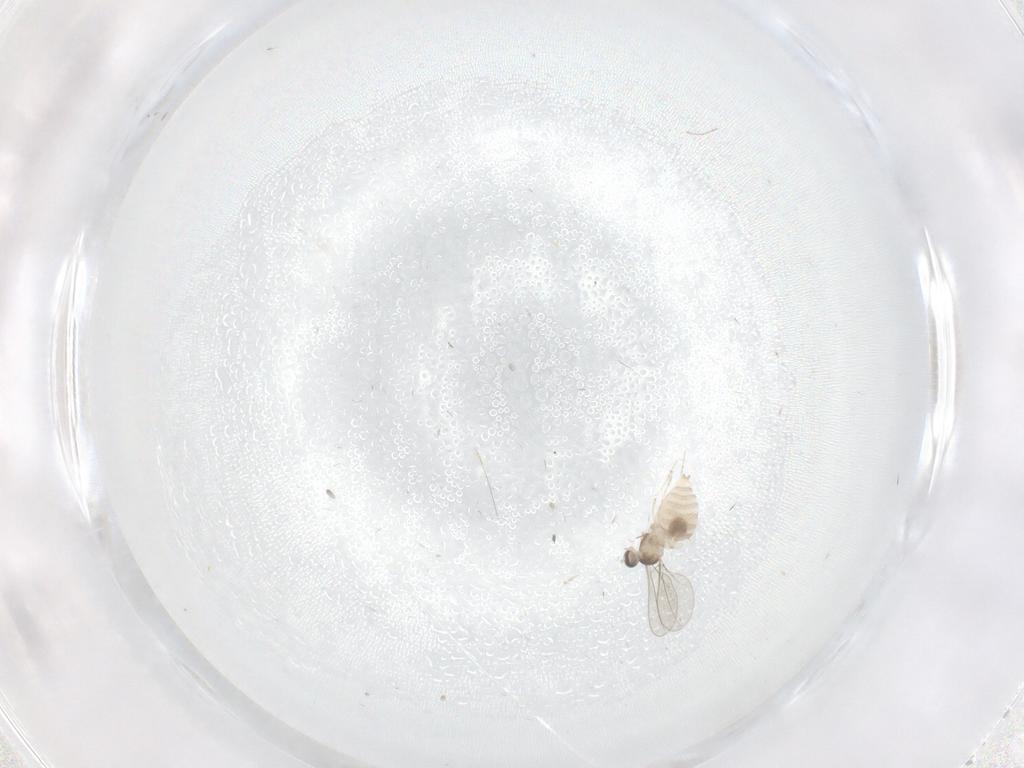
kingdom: Animalia
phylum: Arthropoda
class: Insecta
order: Diptera
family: Cecidomyiidae
